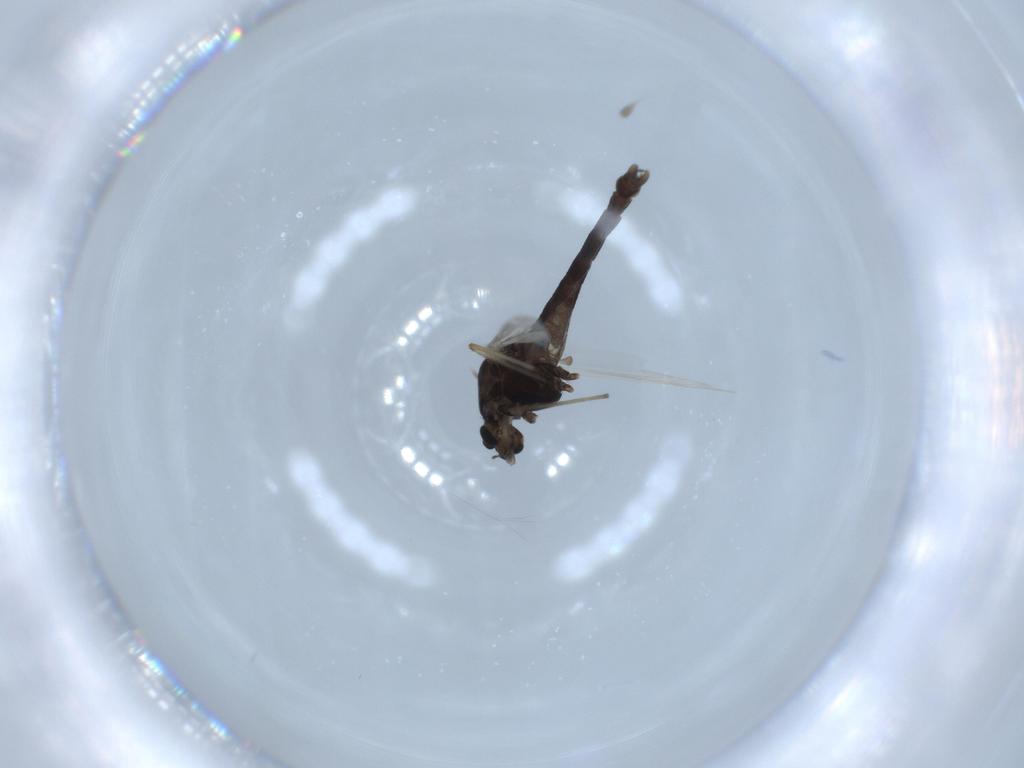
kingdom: Animalia
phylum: Arthropoda
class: Insecta
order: Diptera
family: Chironomidae
